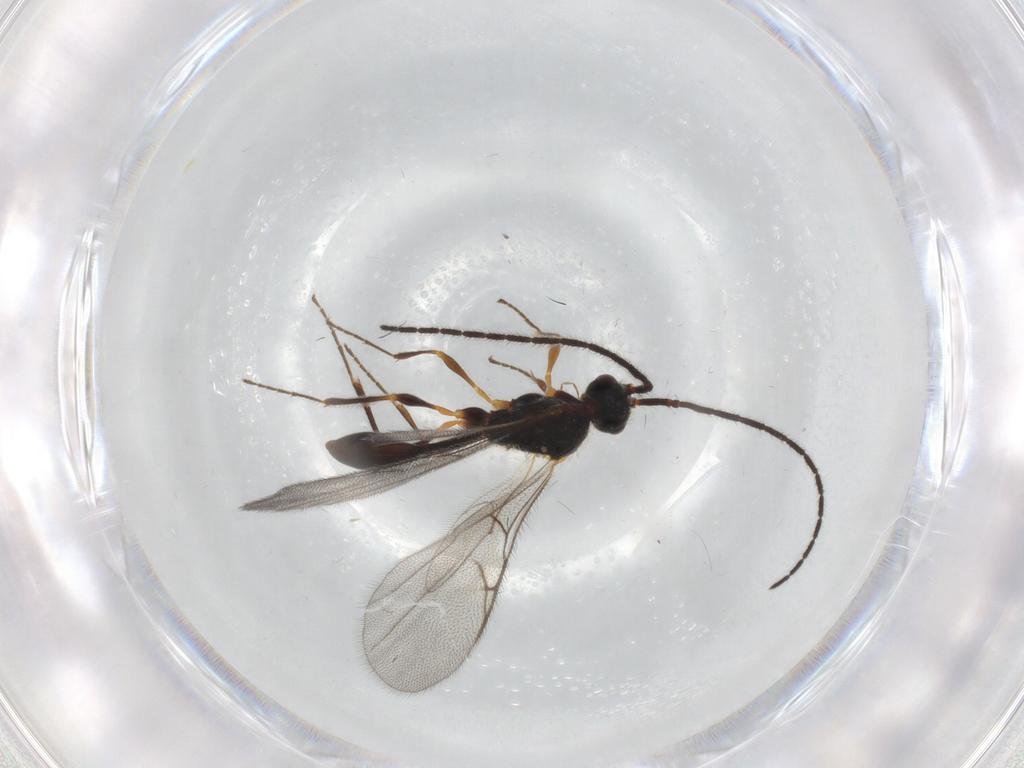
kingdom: Animalia
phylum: Arthropoda
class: Insecta
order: Hymenoptera
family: Diapriidae
